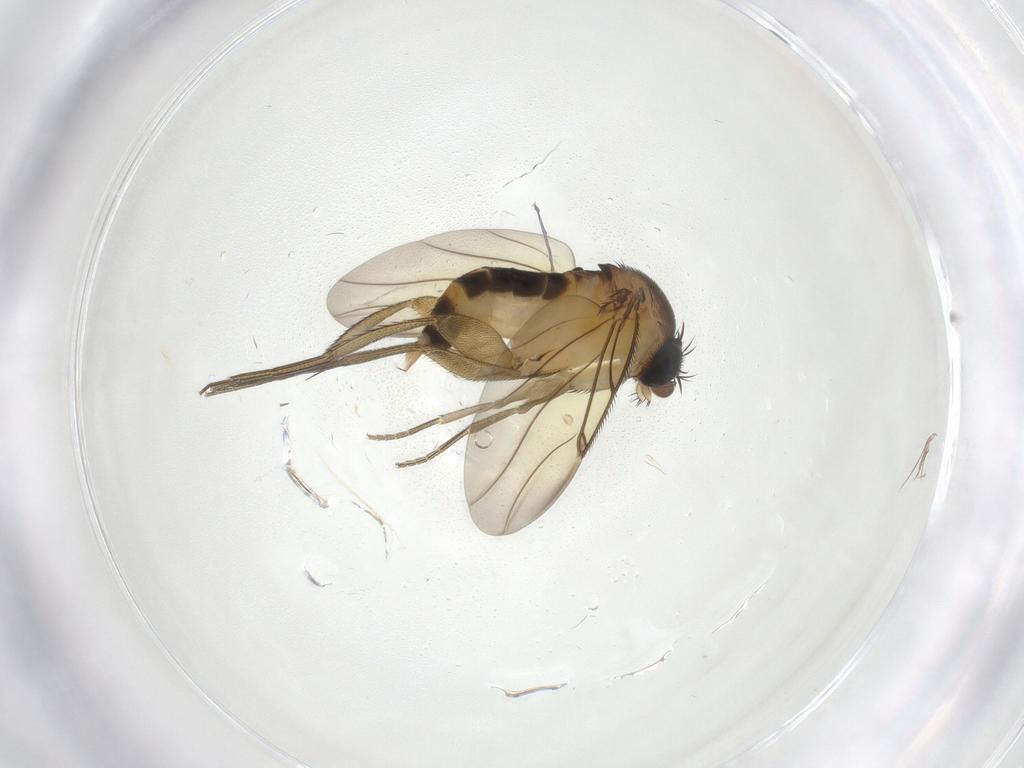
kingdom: Animalia
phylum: Arthropoda
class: Insecta
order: Diptera
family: Phoridae
